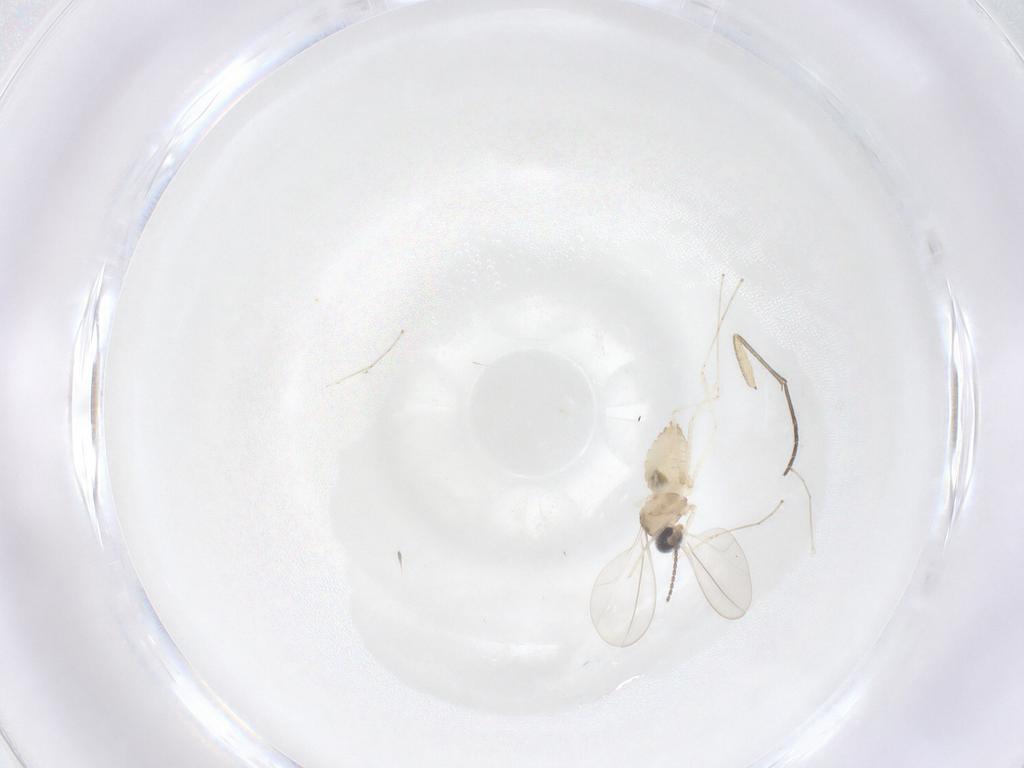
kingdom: Animalia
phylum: Arthropoda
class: Insecta
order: Diptera
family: Cecidomyiidae
